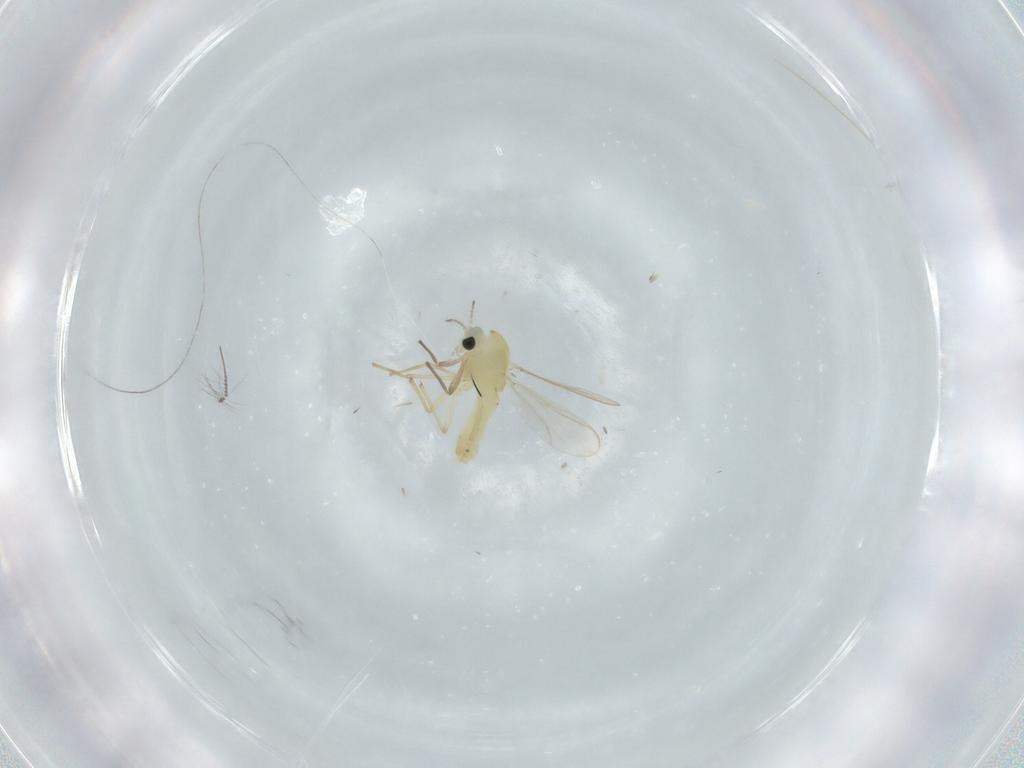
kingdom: Animalia
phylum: Arthropoda
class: Insecta
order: Diptera
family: Chironomidae
